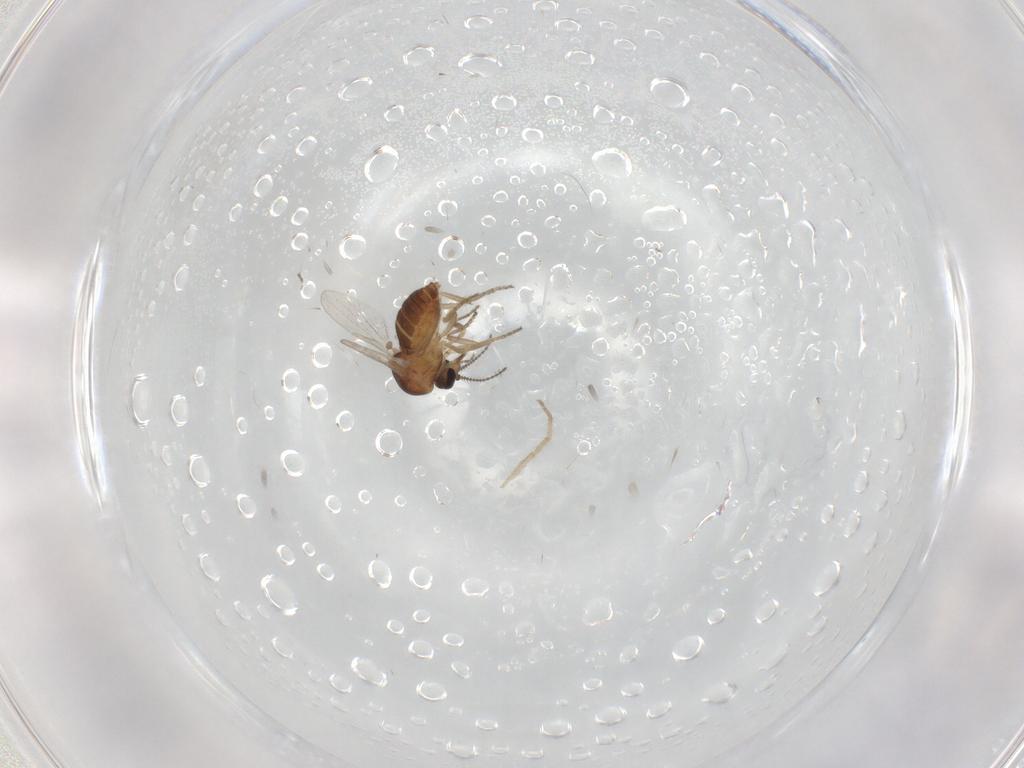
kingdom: Animalia
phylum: Arthropoda
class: Insecta
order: Diptera
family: Ceratopogonidae
